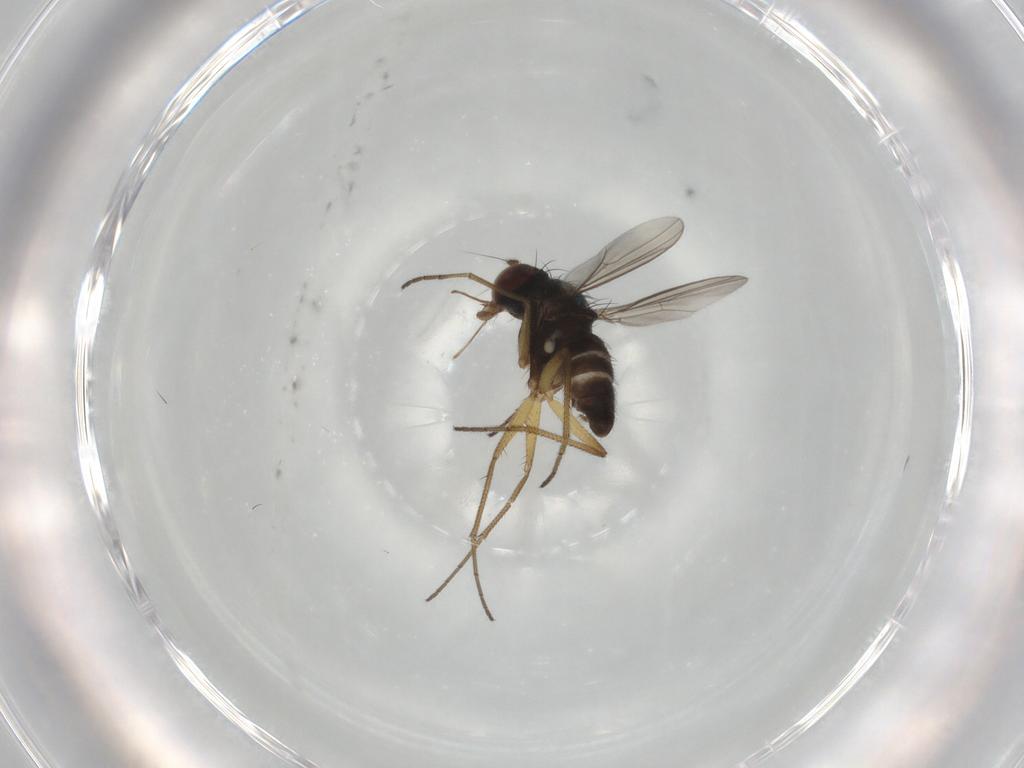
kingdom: Animalia
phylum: Arthropoda
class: Insecta
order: Diptera
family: Dolichopodidae
